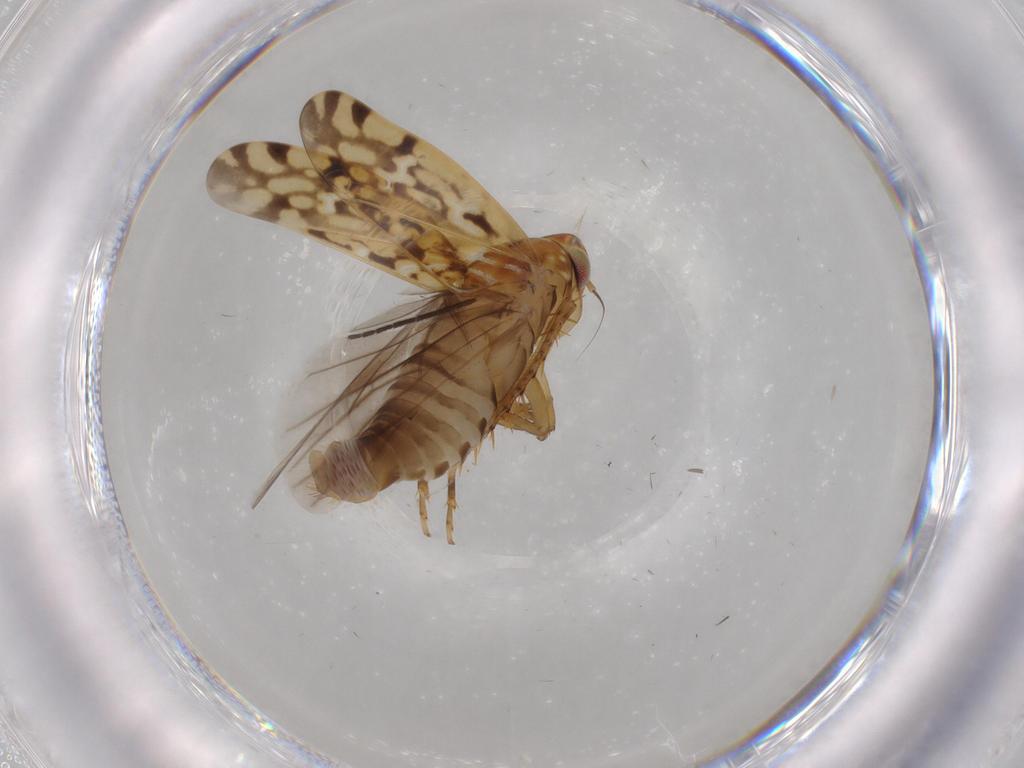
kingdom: Animalia
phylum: Arthropoda
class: Insecta
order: Hemiptera
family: Cicadellidae
